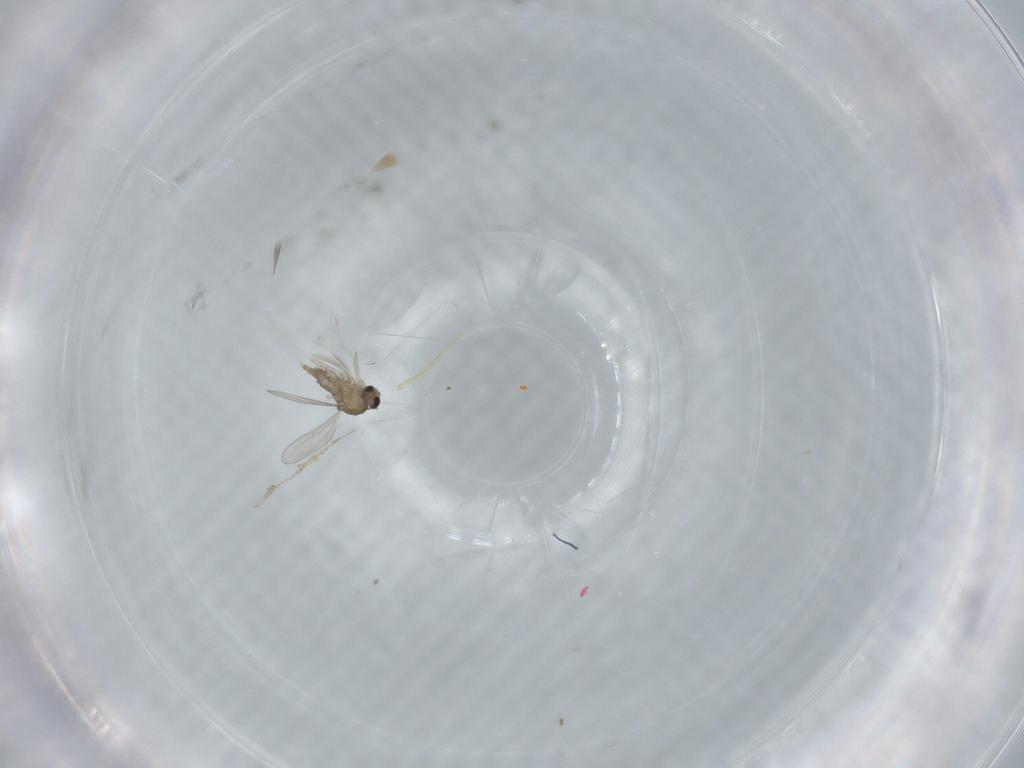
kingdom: Animalia
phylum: Arthropoda
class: Insecta
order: Diptera
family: Cecidomyiidae
